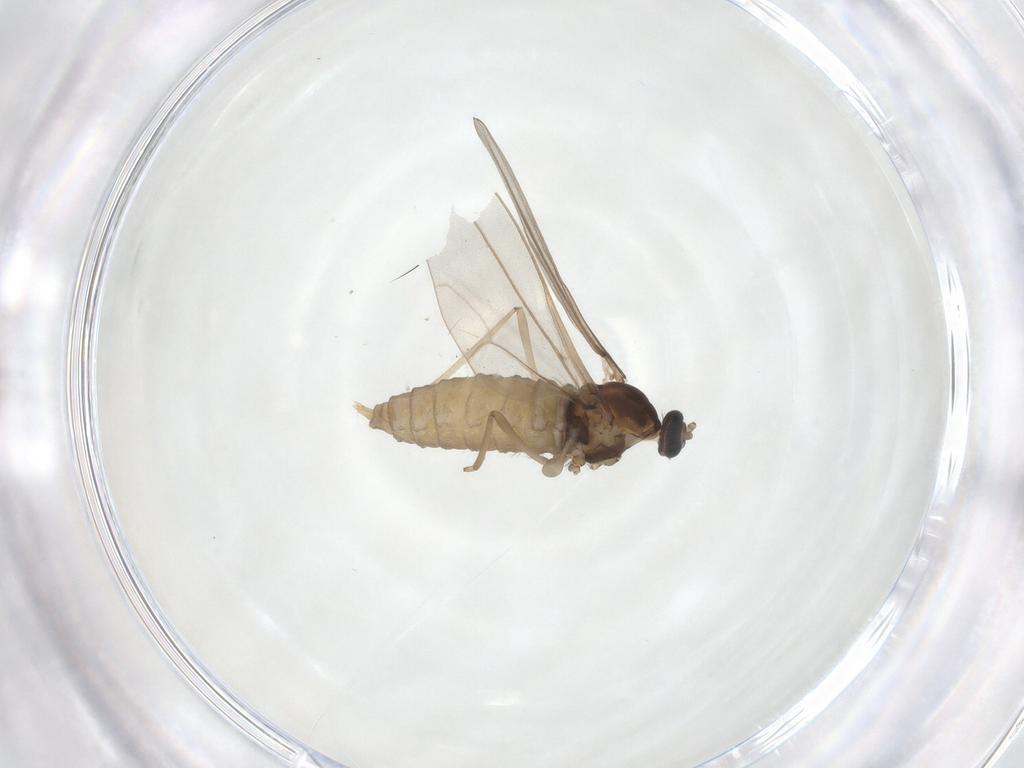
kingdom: Animalia
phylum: Arthropoda
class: Insecta
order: Diptera
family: Cecidomyiidae
